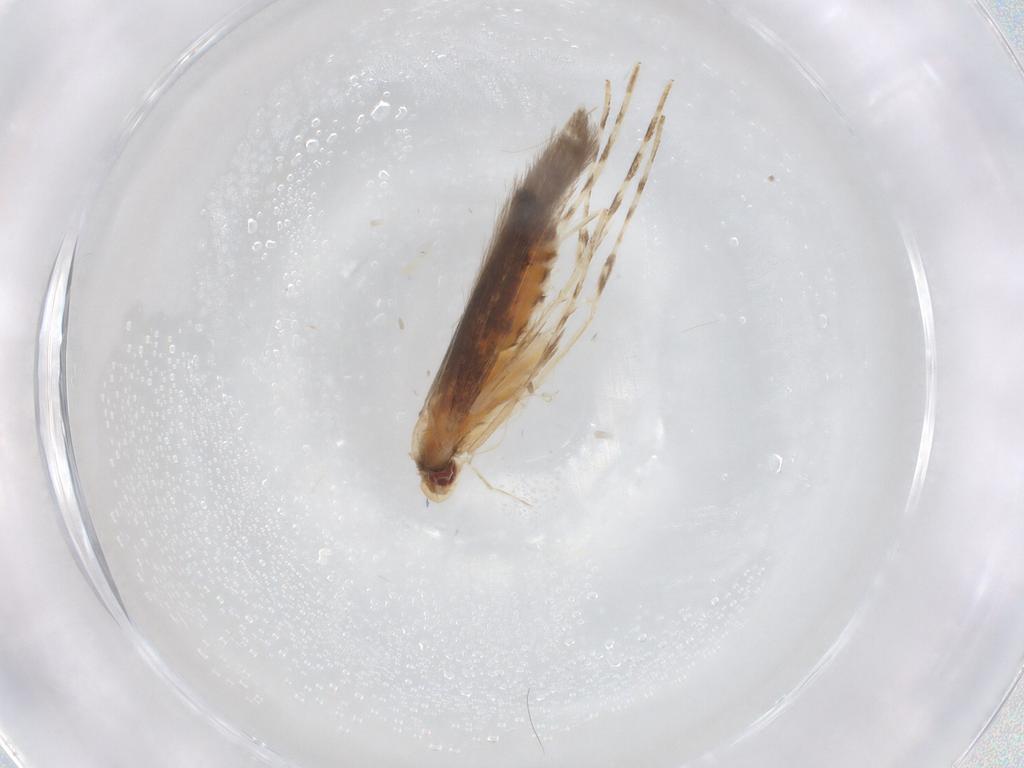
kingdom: Animalia
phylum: Arthropoda
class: Insecta
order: Lepidoptera
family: Gracillariidae
